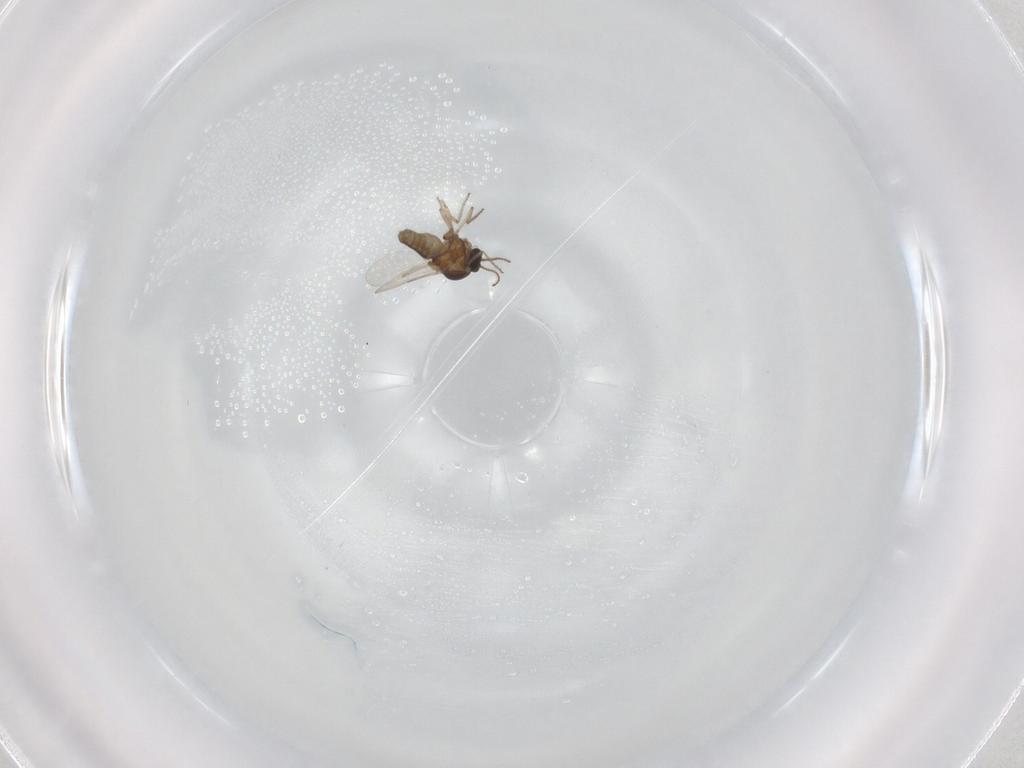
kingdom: Animalia
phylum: Arthropoda
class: Insecta
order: Diptera
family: Ceratopogonidae
